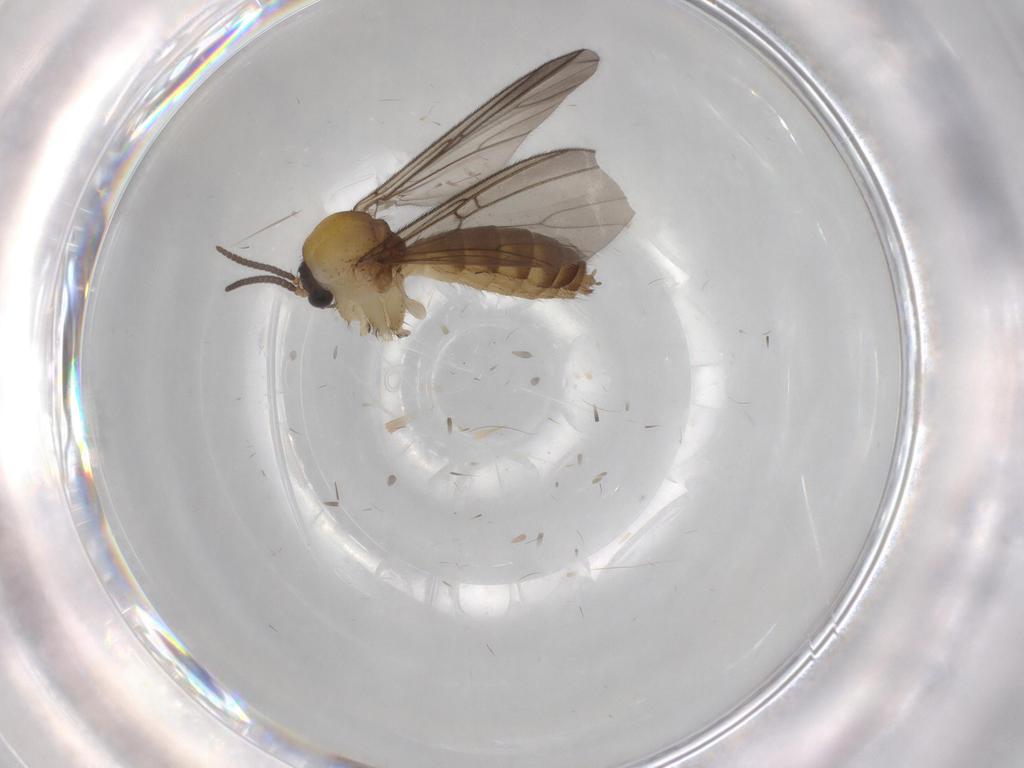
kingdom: Animalia
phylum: Arthropoda
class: Insecta
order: Diptera
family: Mycetophilidae
